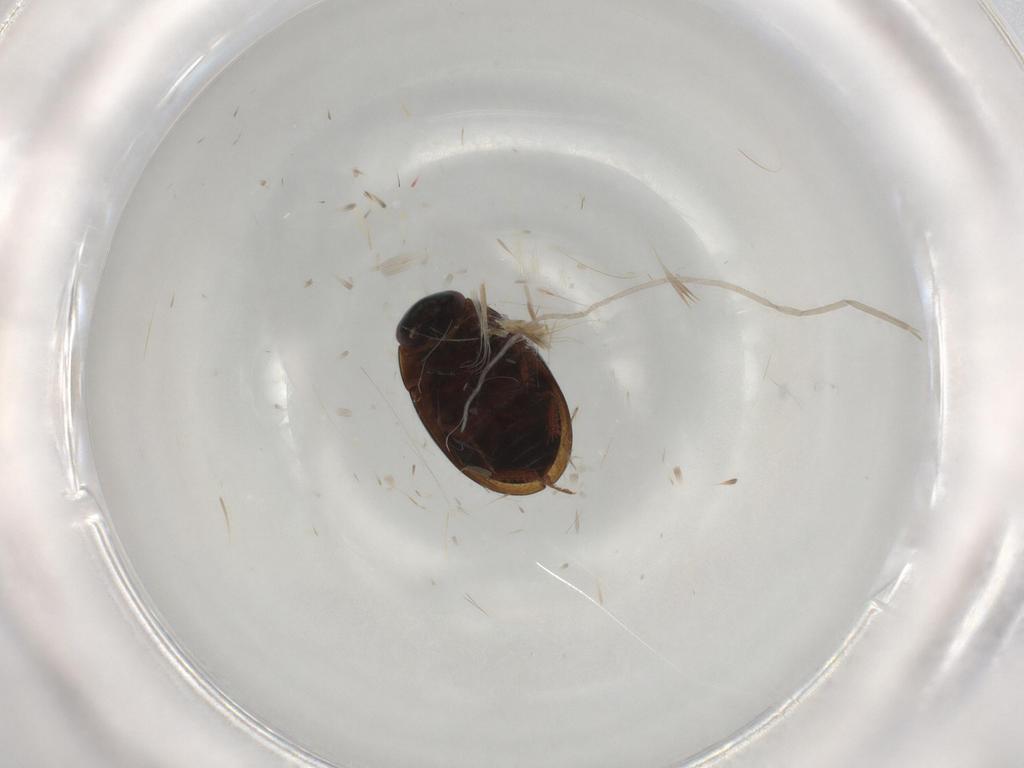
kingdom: Animalia
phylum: Arthropoda
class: Insecta
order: Coleoptera
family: Hydrophilidae
